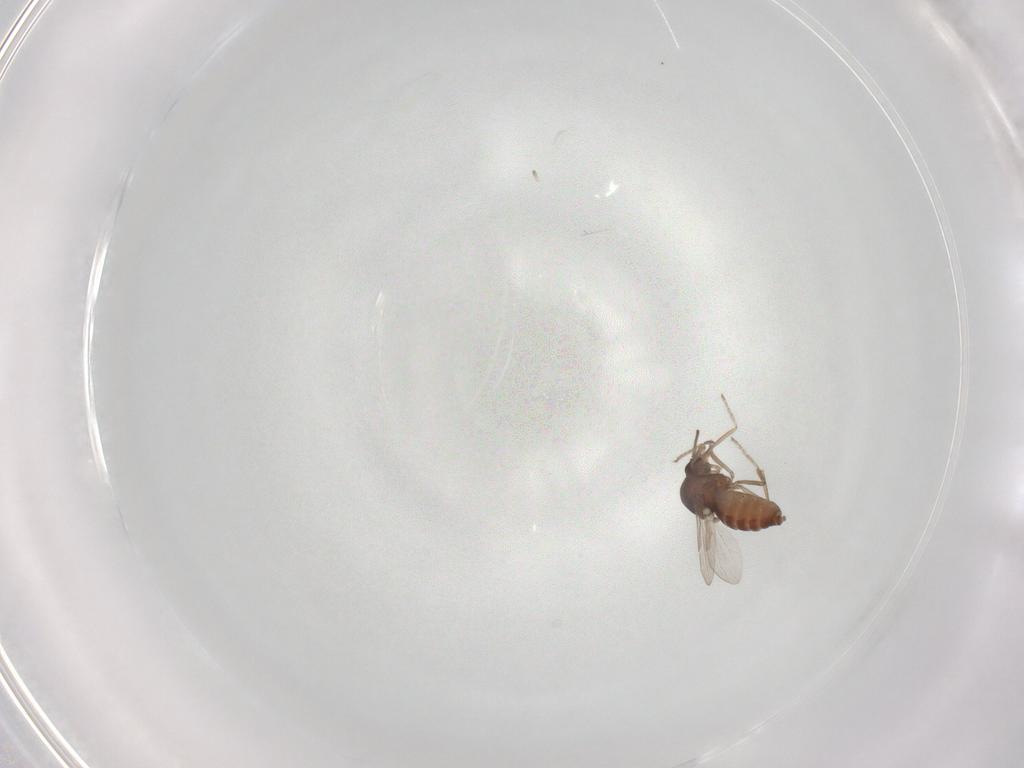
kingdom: Animalia
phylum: Arthropoda
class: Insecta
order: Diptera
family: Ceratopogonidae
